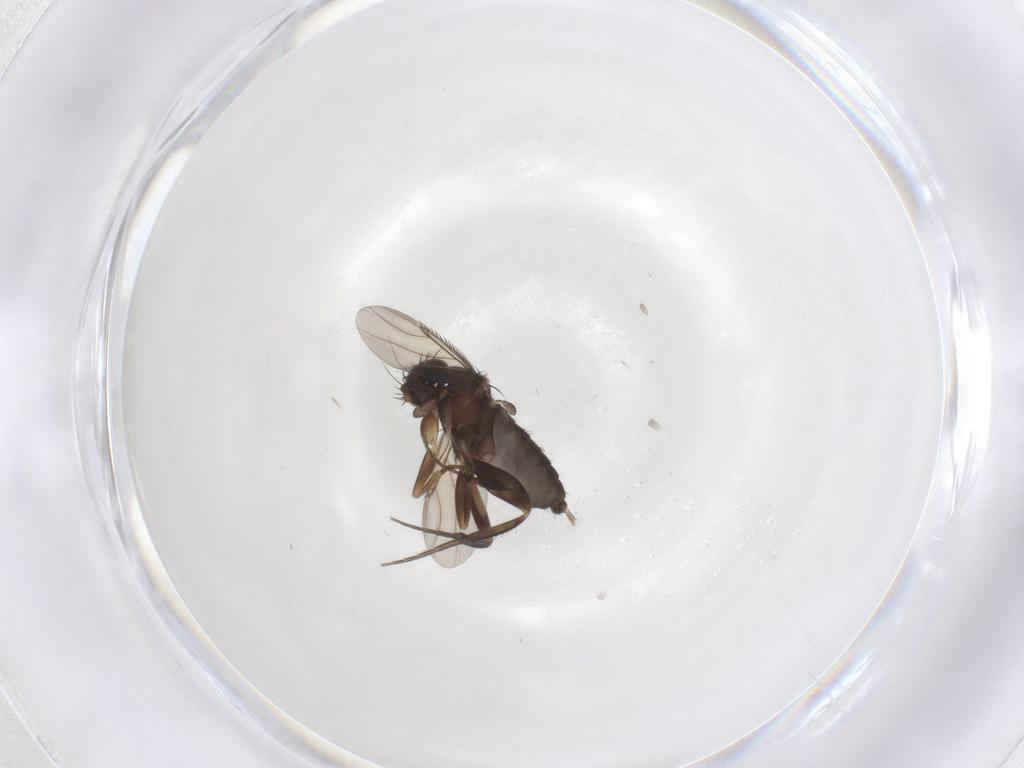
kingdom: Animalia
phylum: Arthropoda
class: Insecta
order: Diptera
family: Phoridae
